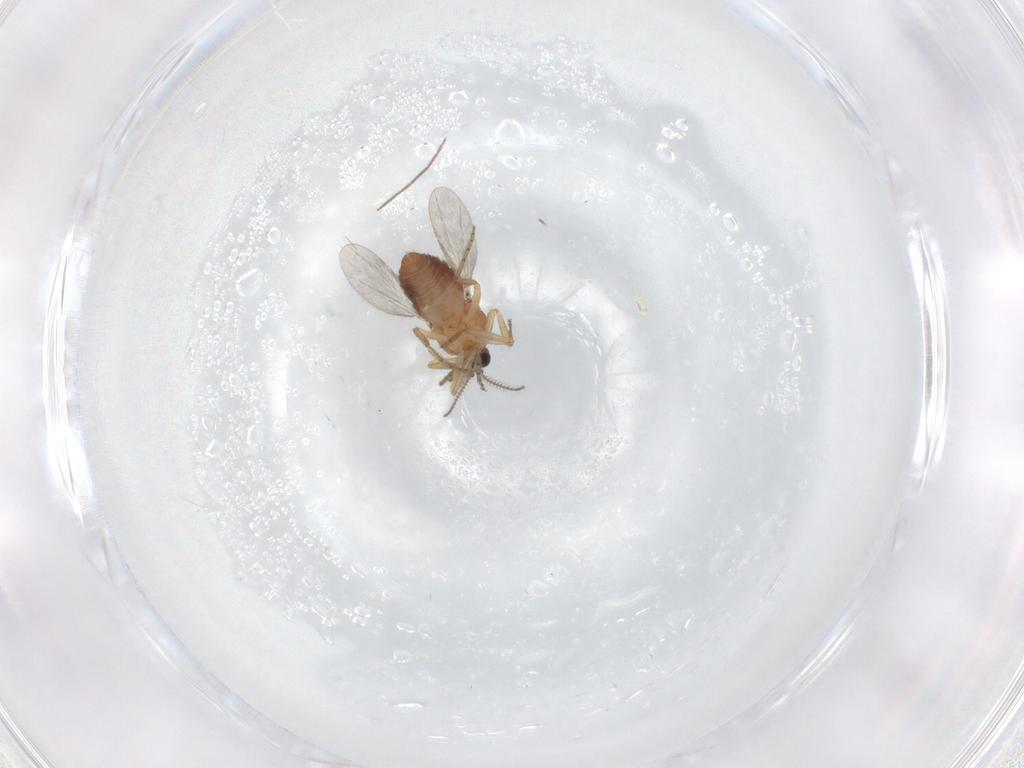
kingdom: Animalia
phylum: Arthropoda
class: Insecta
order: Diptera
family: Ceratopogonidae
